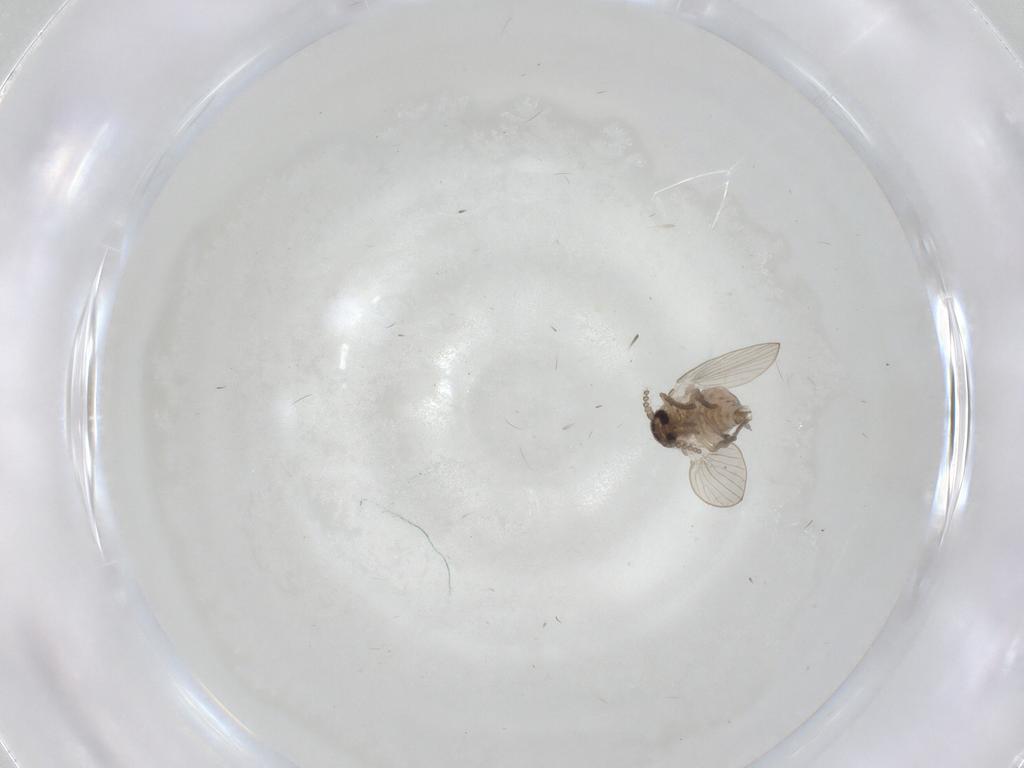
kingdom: Animalia
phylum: Arthropoda
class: Insecta
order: Diptera
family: Psychodidae
